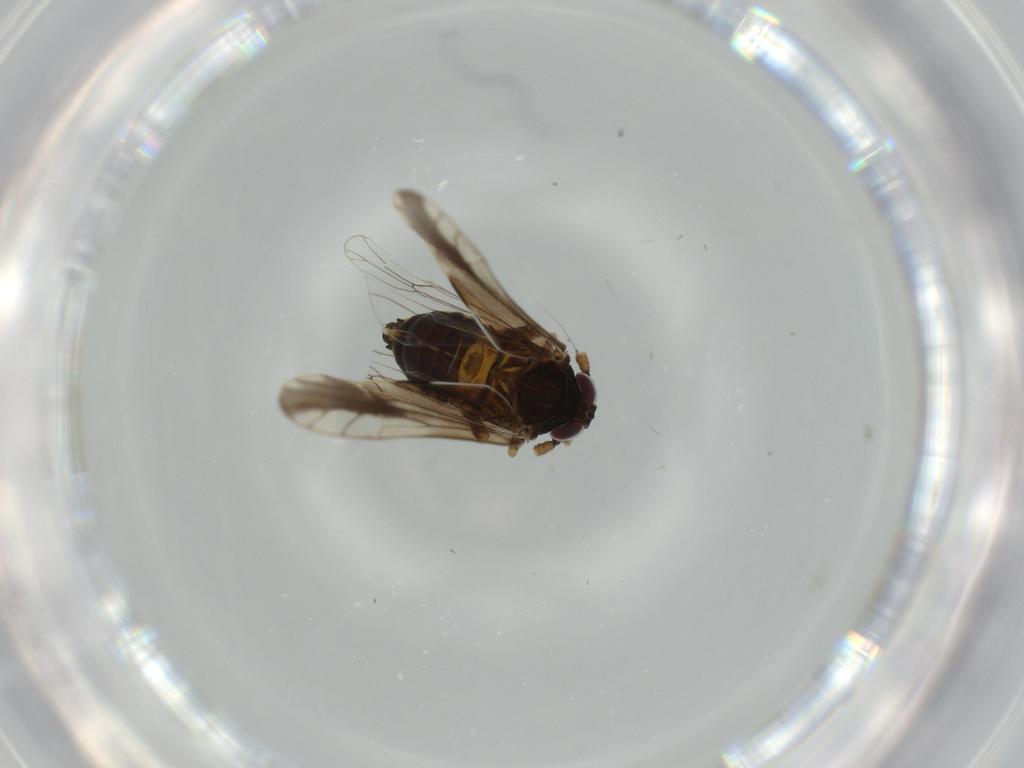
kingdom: Animalia
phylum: Arthropoda
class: Insecta
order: Hemiptera
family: Delphacidae
